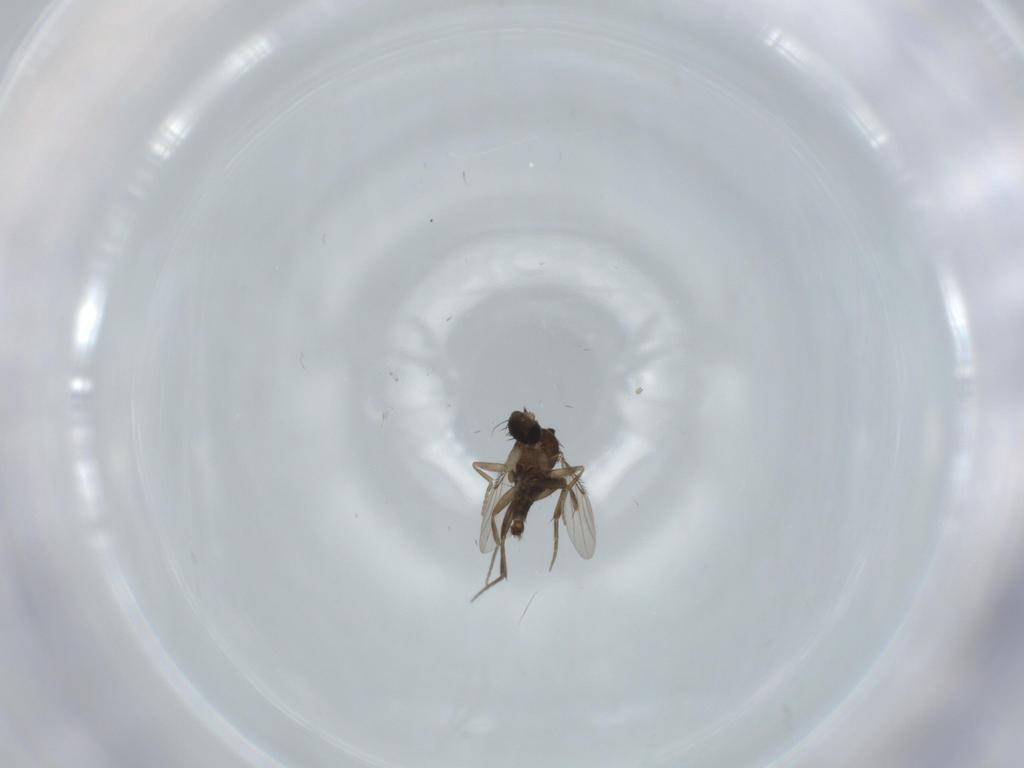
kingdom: Animalia
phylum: Arthropoda
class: Insecta
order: Diptera
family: Phoridae
